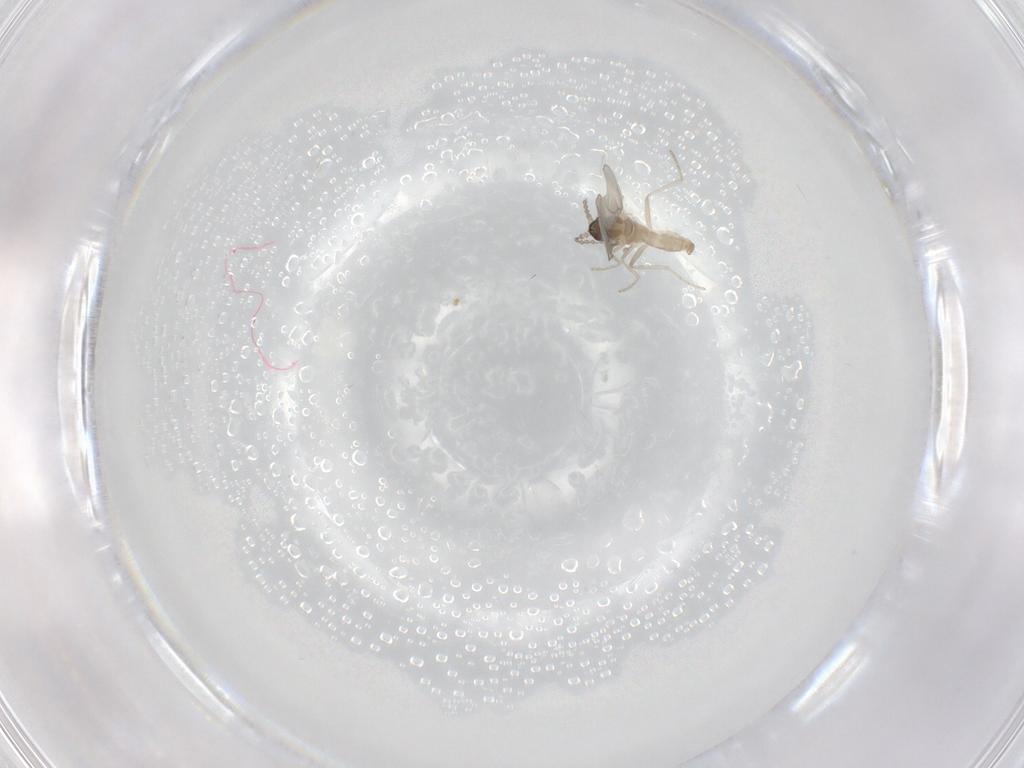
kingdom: Animalia
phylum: Arthropoda
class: Insecta
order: Diptera
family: Cecidomyiidae
